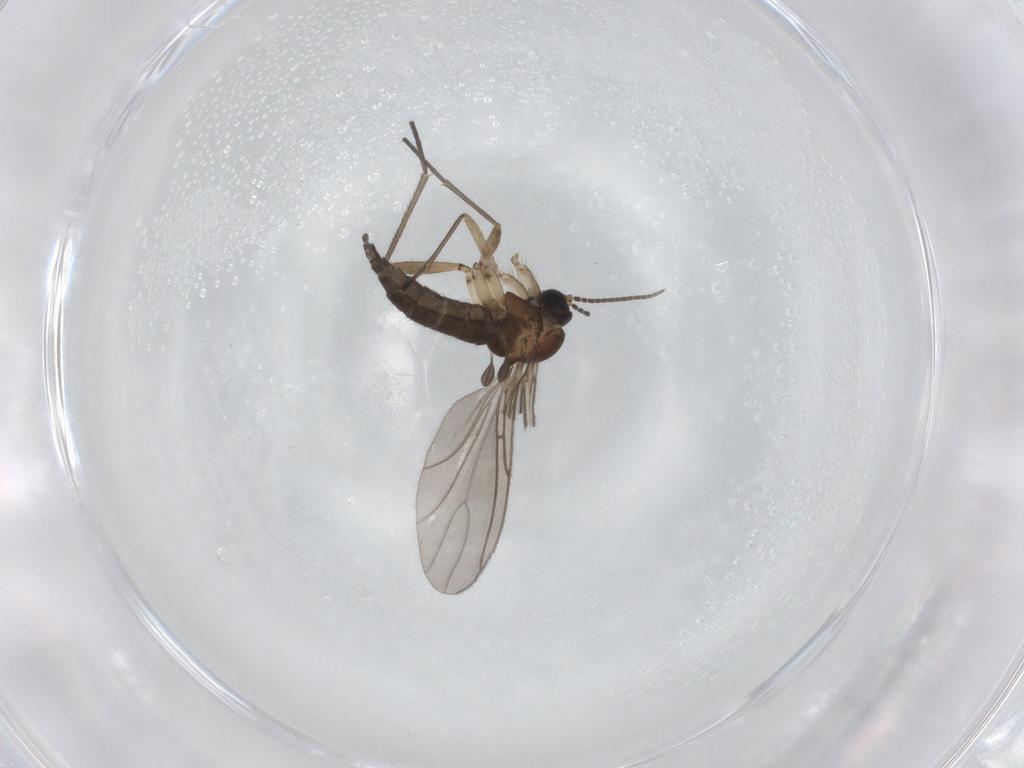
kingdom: Animalia
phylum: Arthropoda
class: Insecta
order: Diptera
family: Sciaridae
